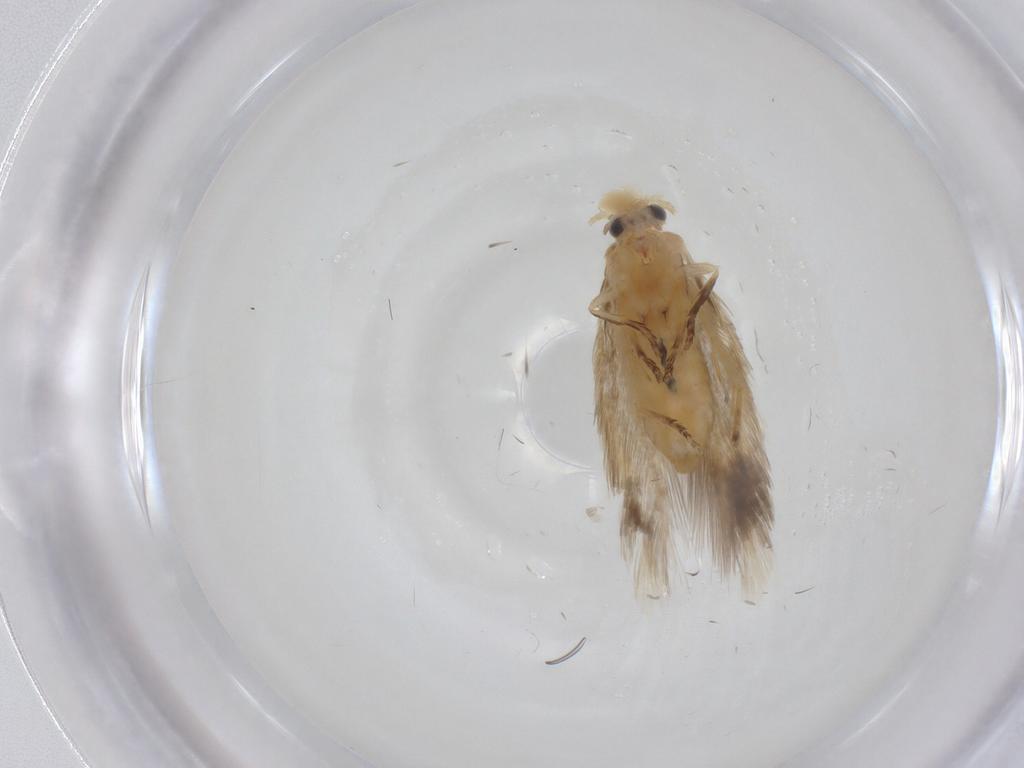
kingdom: Animalia
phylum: Arthropoda
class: Insecta
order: Lepidoptera
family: Nepticulidae
